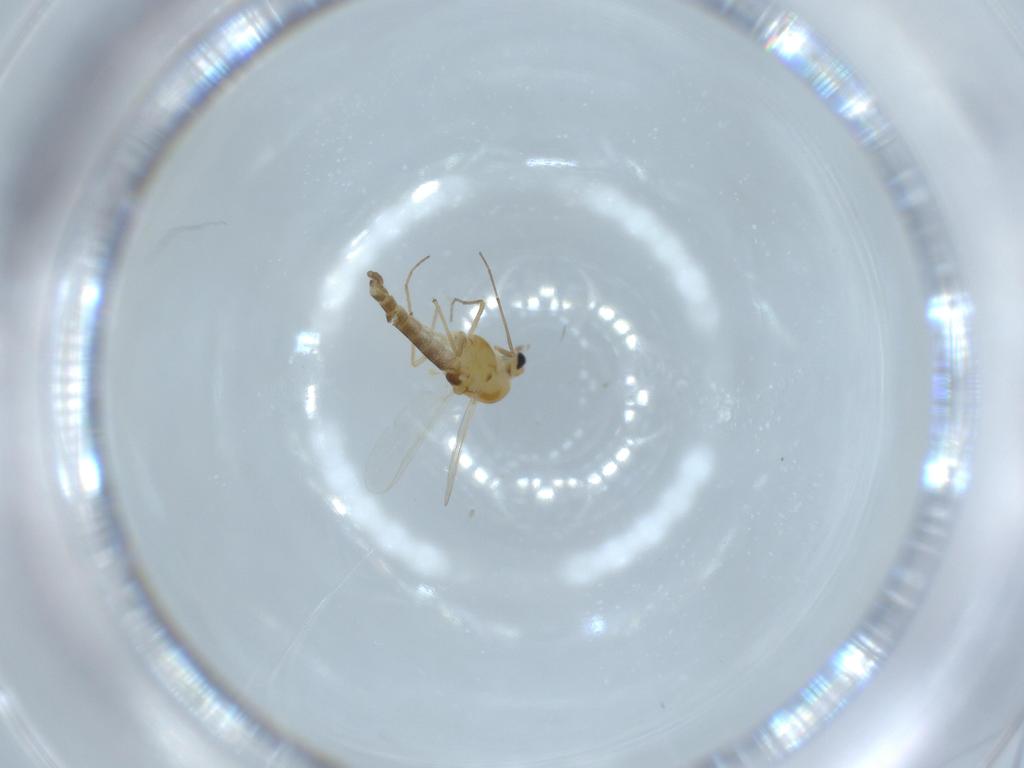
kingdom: Animalia
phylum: Arthropoda
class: Insecta
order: Diptera
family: Chironomidae
